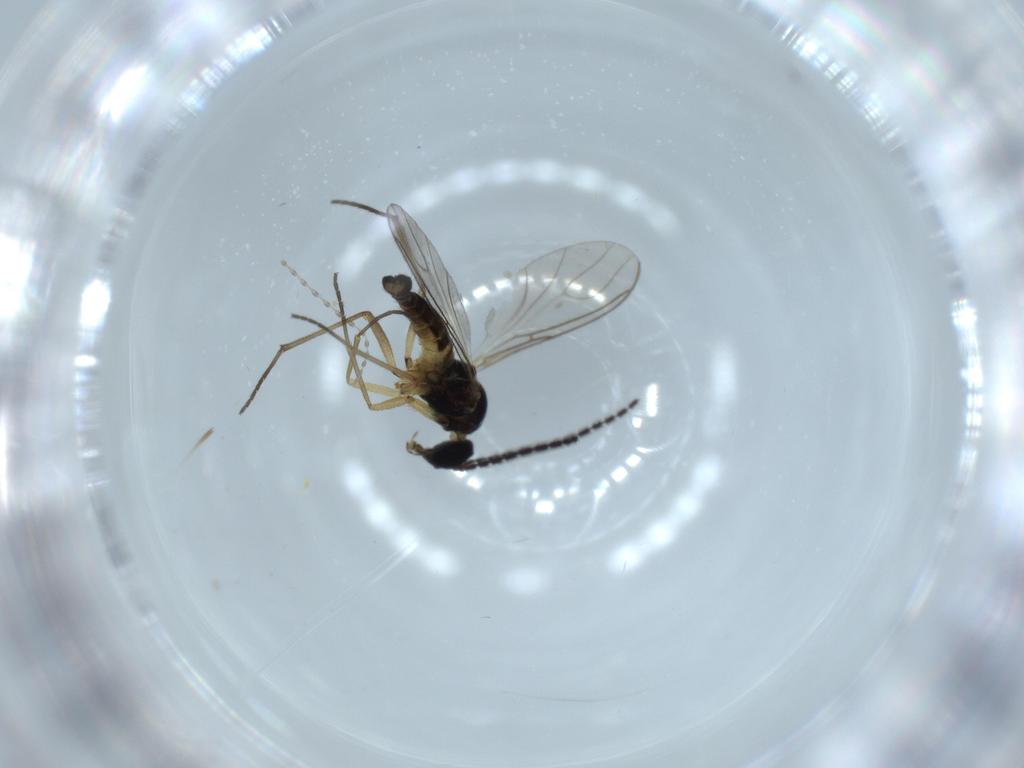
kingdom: Animalia
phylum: Arthropoda
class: Insecta
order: Diptera
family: Sciaridae
